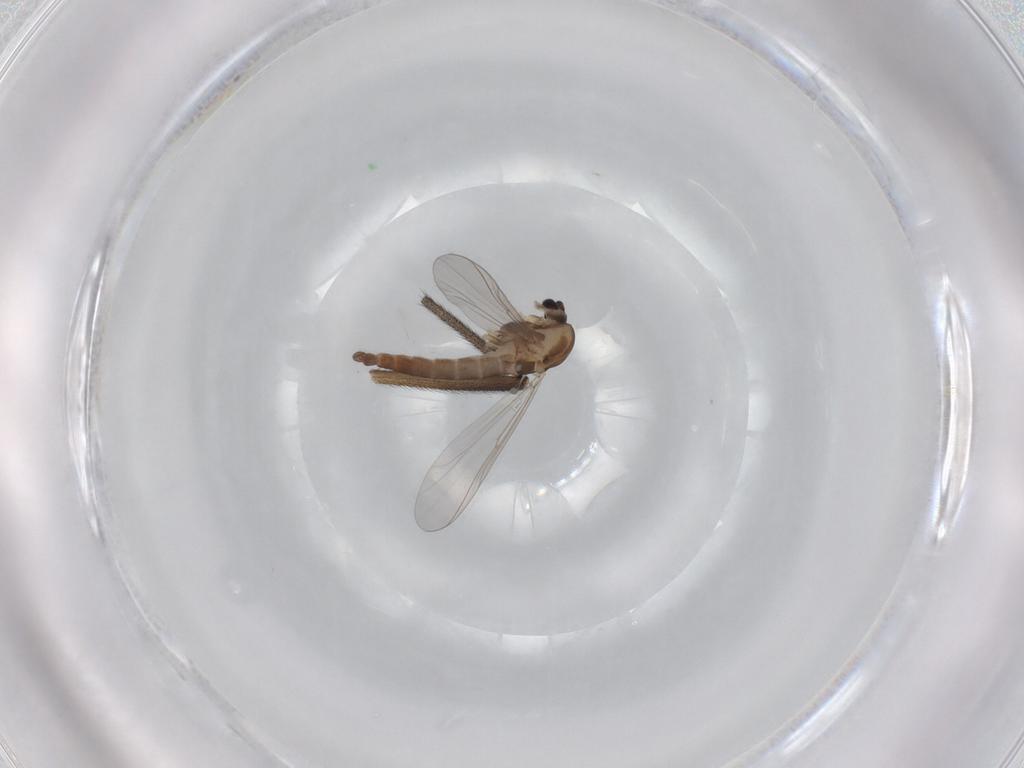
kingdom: Animalia
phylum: Arthropoda
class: Insecta
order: Diptera
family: Chironomidae
